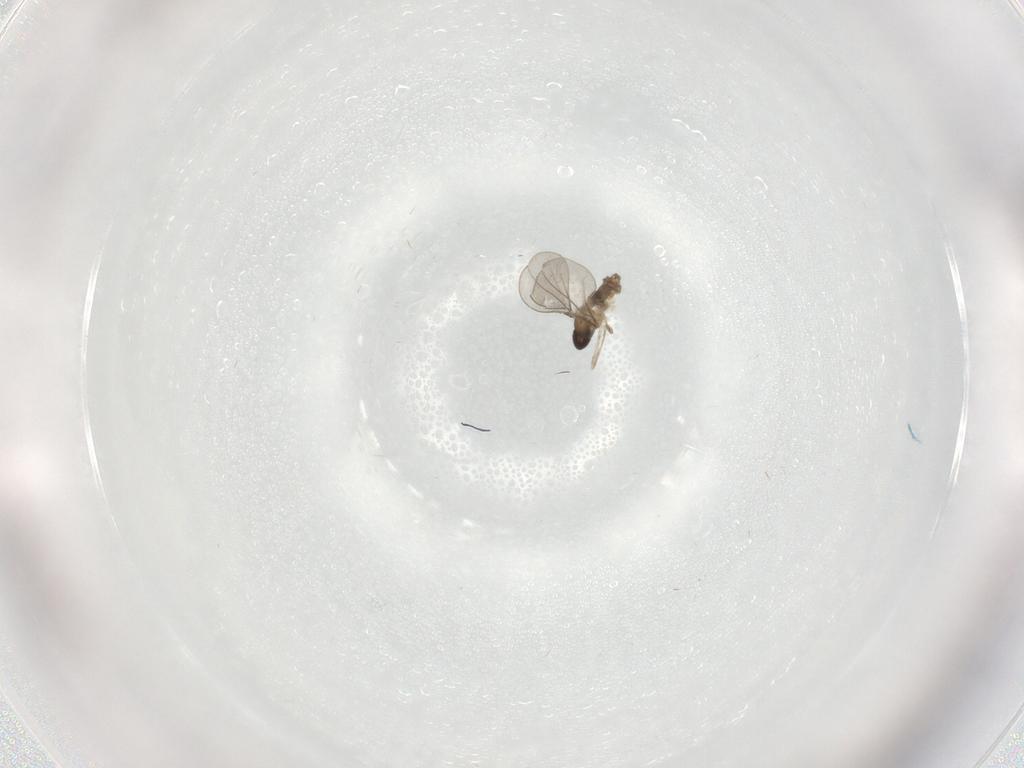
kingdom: Animalia
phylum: Arthropoda
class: Insecta
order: Diptera
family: Cecidomyiidae
